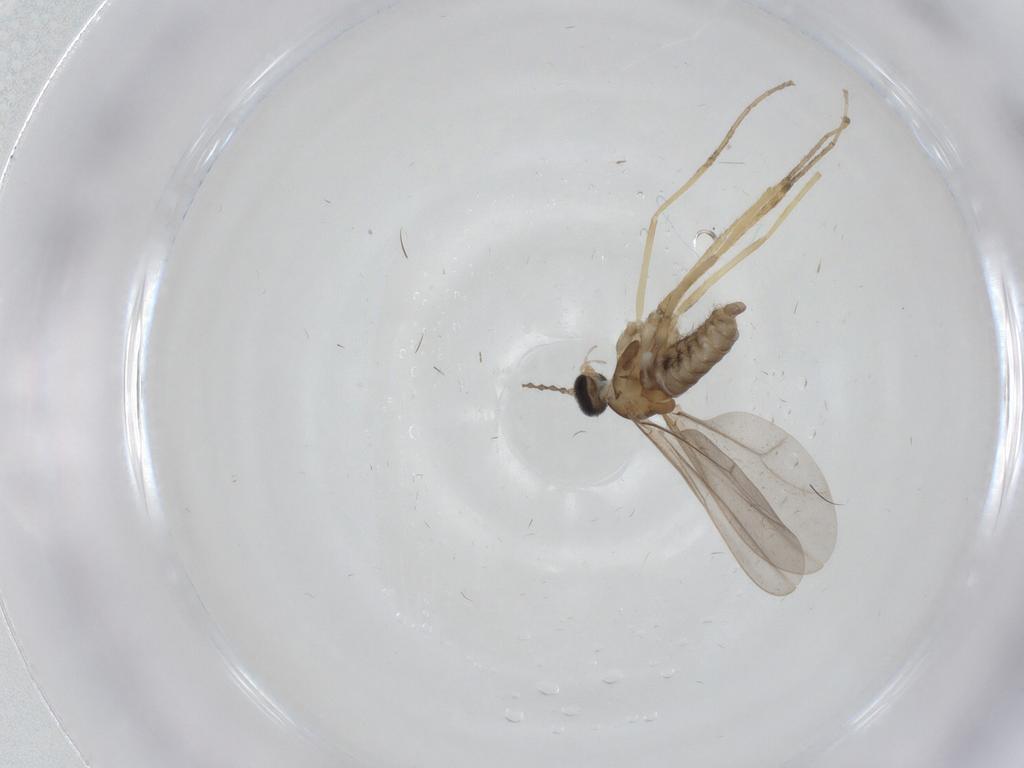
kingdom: Animalia
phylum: Arthropoda
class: Insecta
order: Diptera
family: Cecidomyiidae
